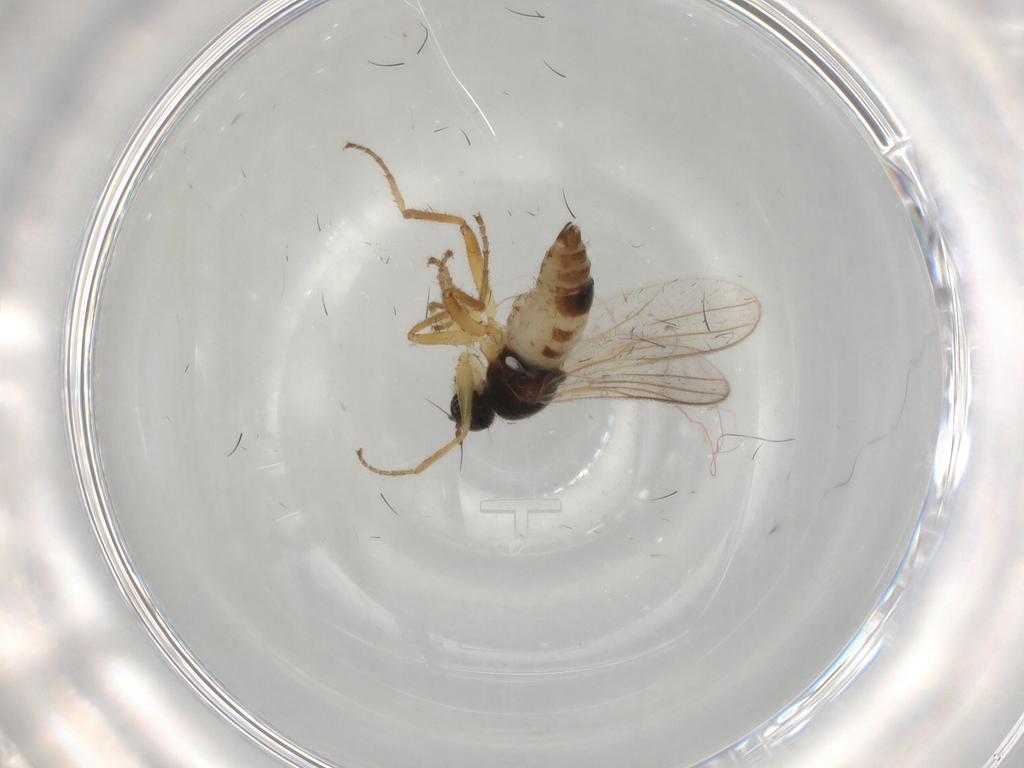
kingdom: Animalia
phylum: Arthropoda
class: Insecta
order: Diptera
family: Hybotidae
